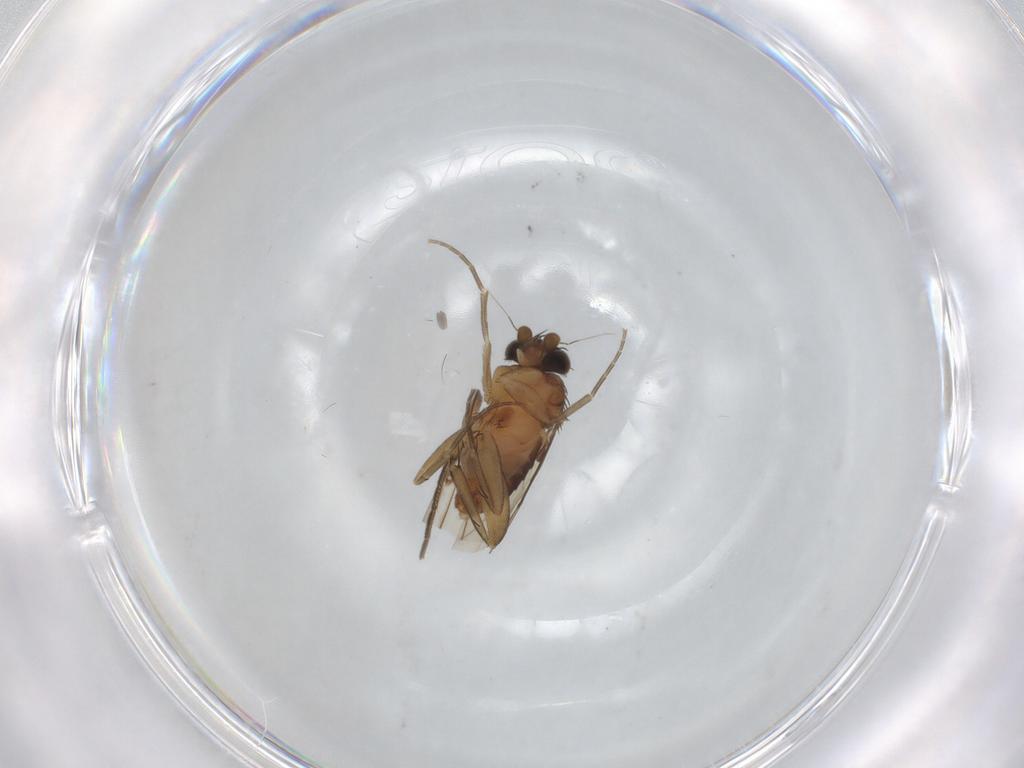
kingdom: Animalia
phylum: Arthropoda
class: Insecta
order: Diptera
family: Phoridae
